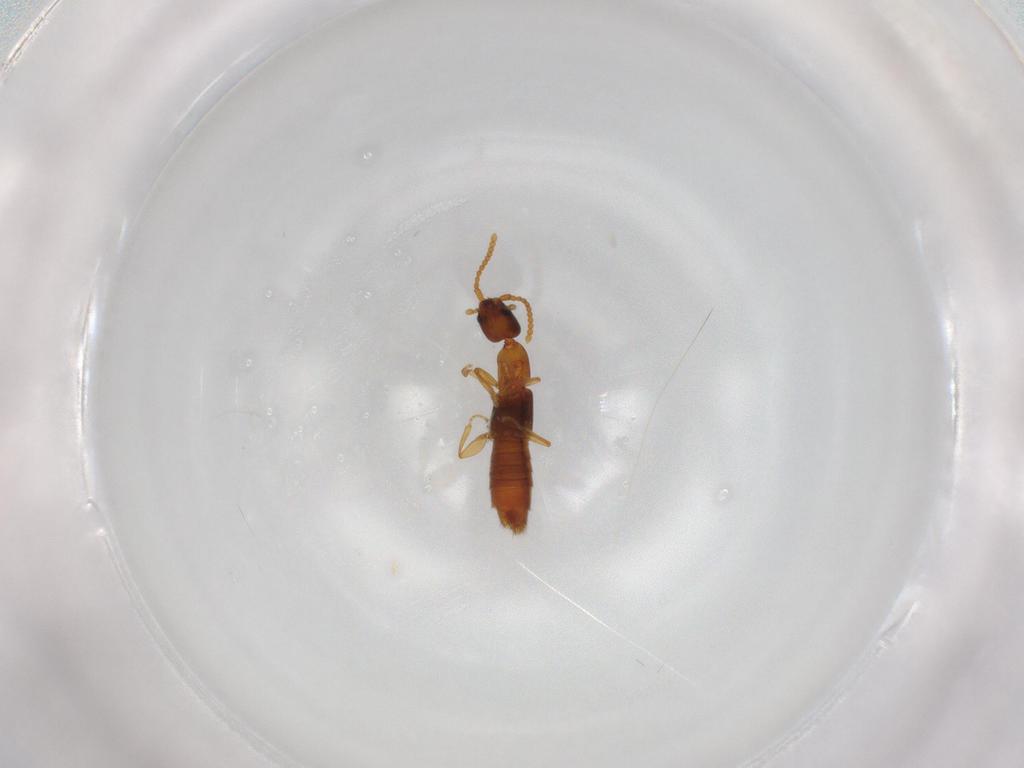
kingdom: Animalia
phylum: Arthropoda
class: Insecta
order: Coleoptera
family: Staphylinidae
